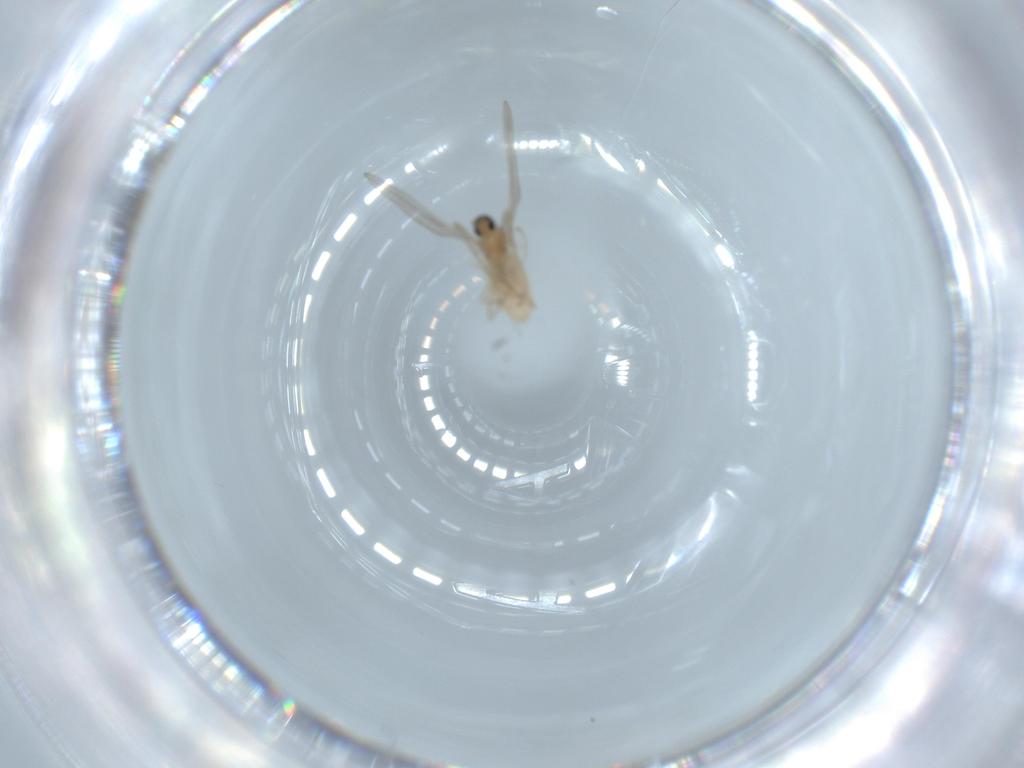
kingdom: Animalia
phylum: Arthropoda
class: Insecta
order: Diptera
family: Cecidomyiidae
